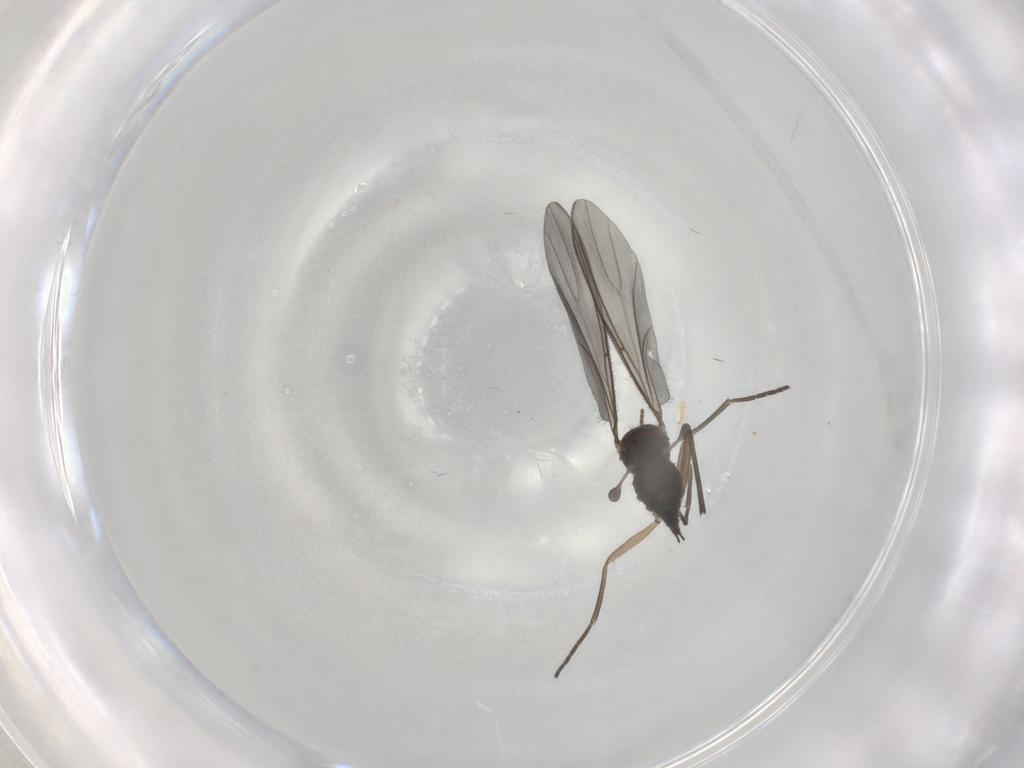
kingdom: Animalia
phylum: Arthropoda
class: Insecta
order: Diptera
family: Sciaridae
